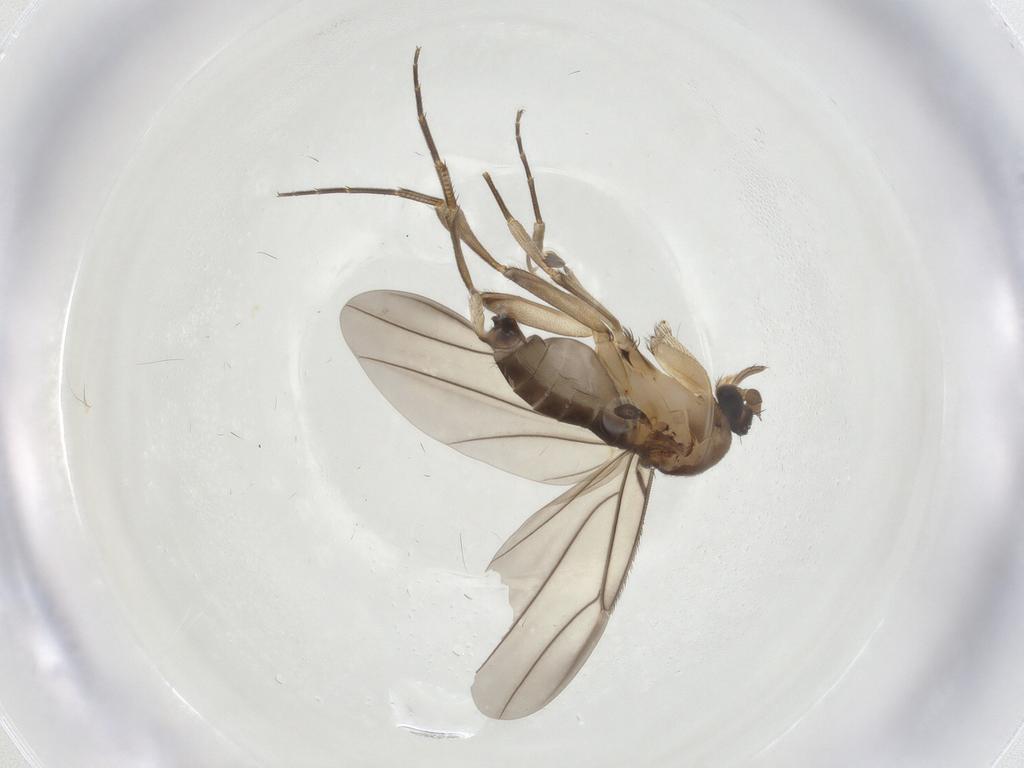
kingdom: Animalia
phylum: Arthropoda
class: Insecta
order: Diptera
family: Phoridae
